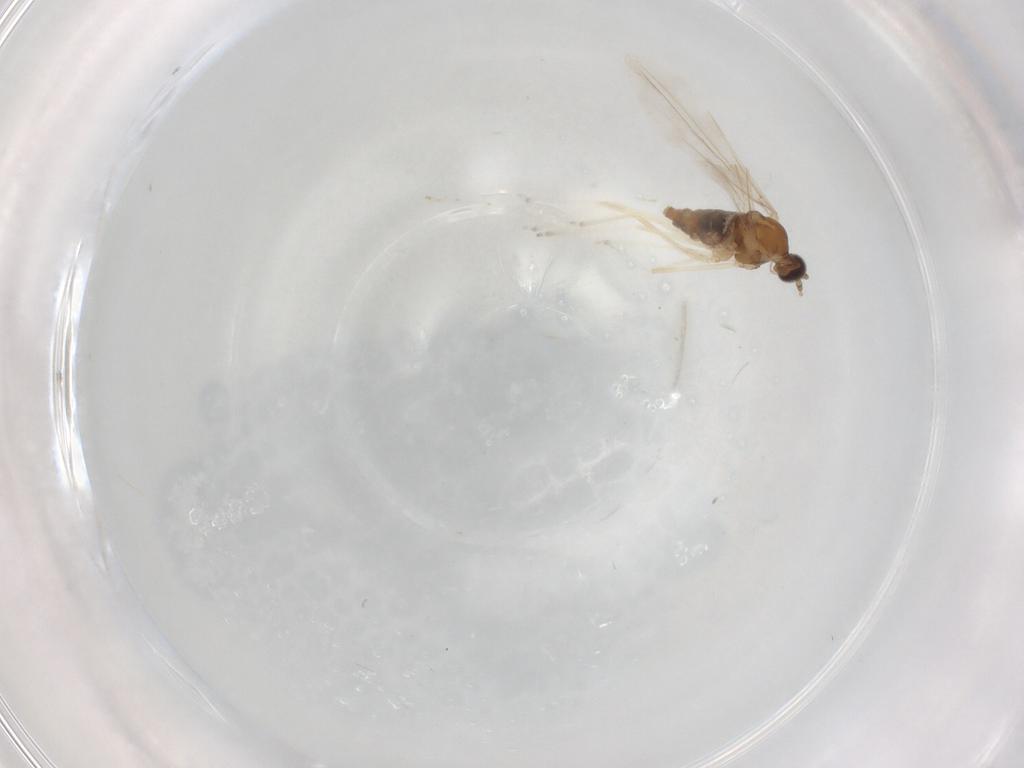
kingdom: Animalia
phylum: Arthropoda
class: Insecta
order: Diptera
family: Cecidomyiidae
